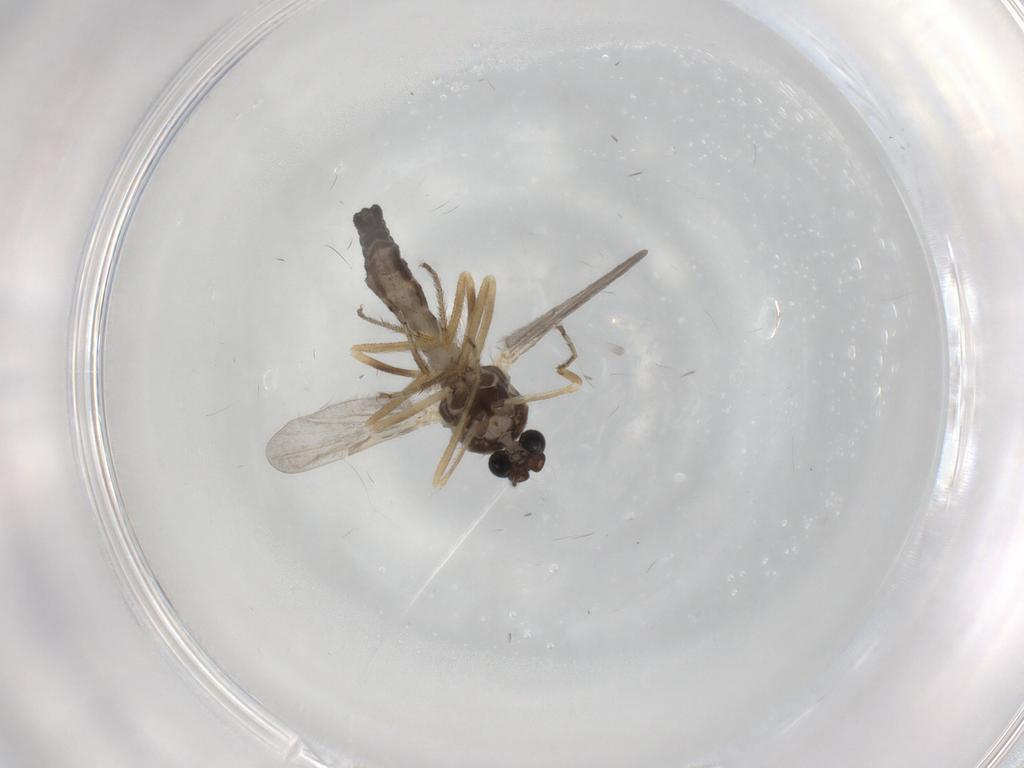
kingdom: Animalia
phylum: Arthropoda
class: Insecta
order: Diptera
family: Ceratopogonidae
